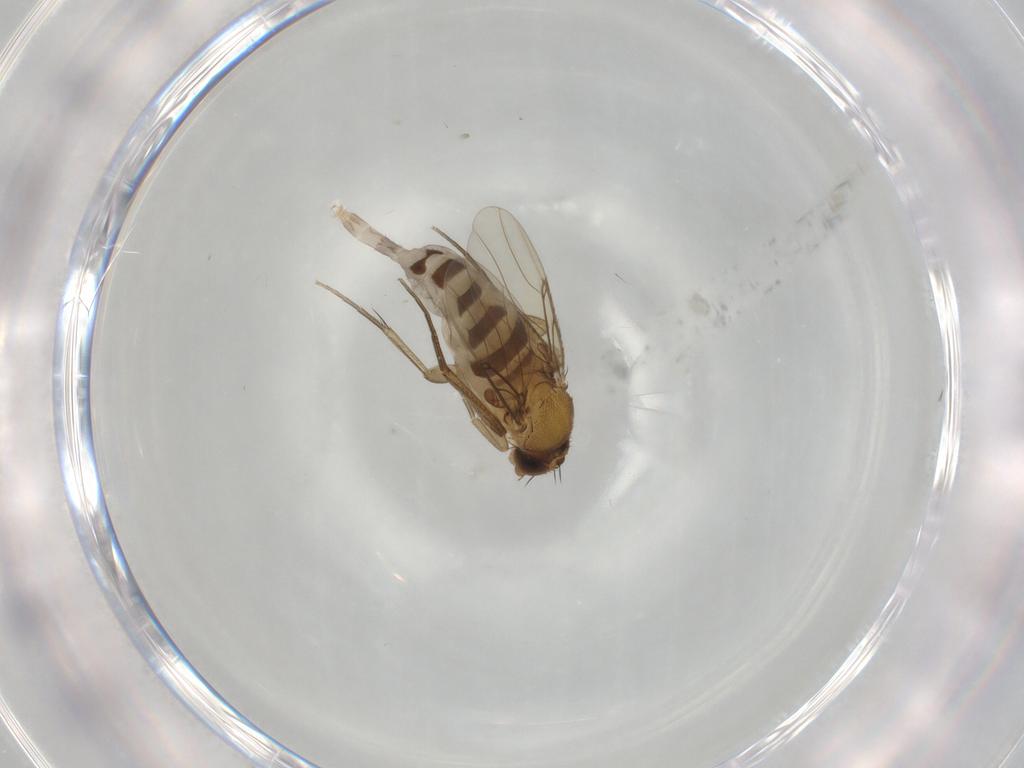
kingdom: Animalia
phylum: Arthropoda
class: Insecta
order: Diptera
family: Phoridae
